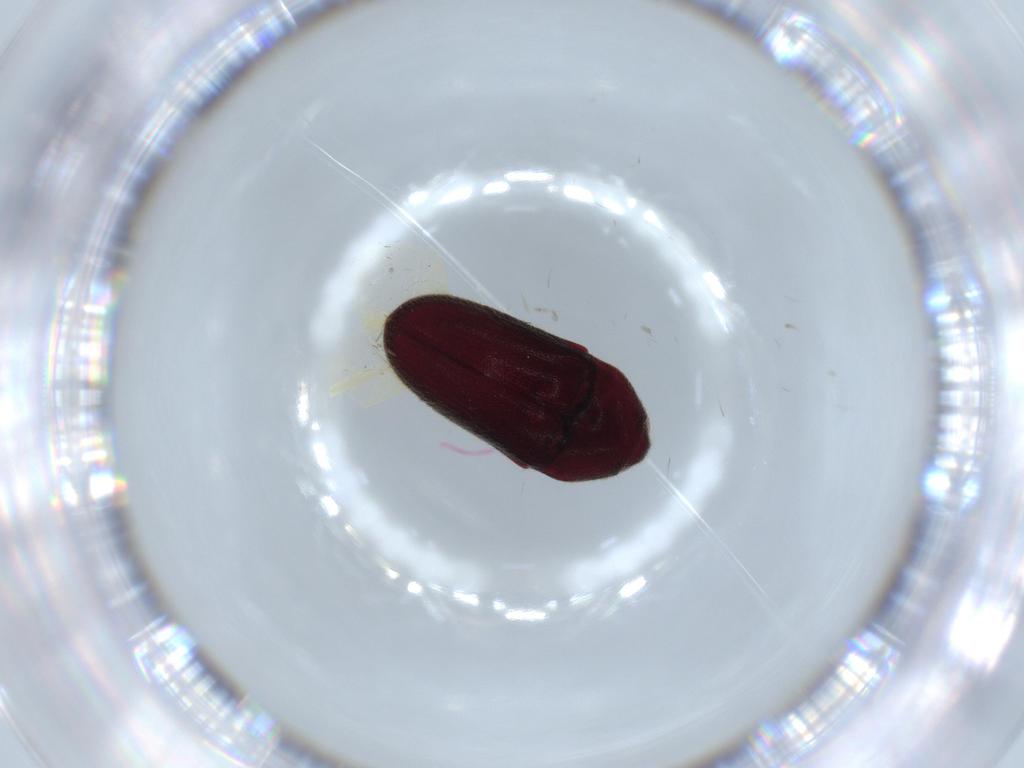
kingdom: Animalia
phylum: Arthropoda
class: Insecta
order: Coleoptera
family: Throscidae
